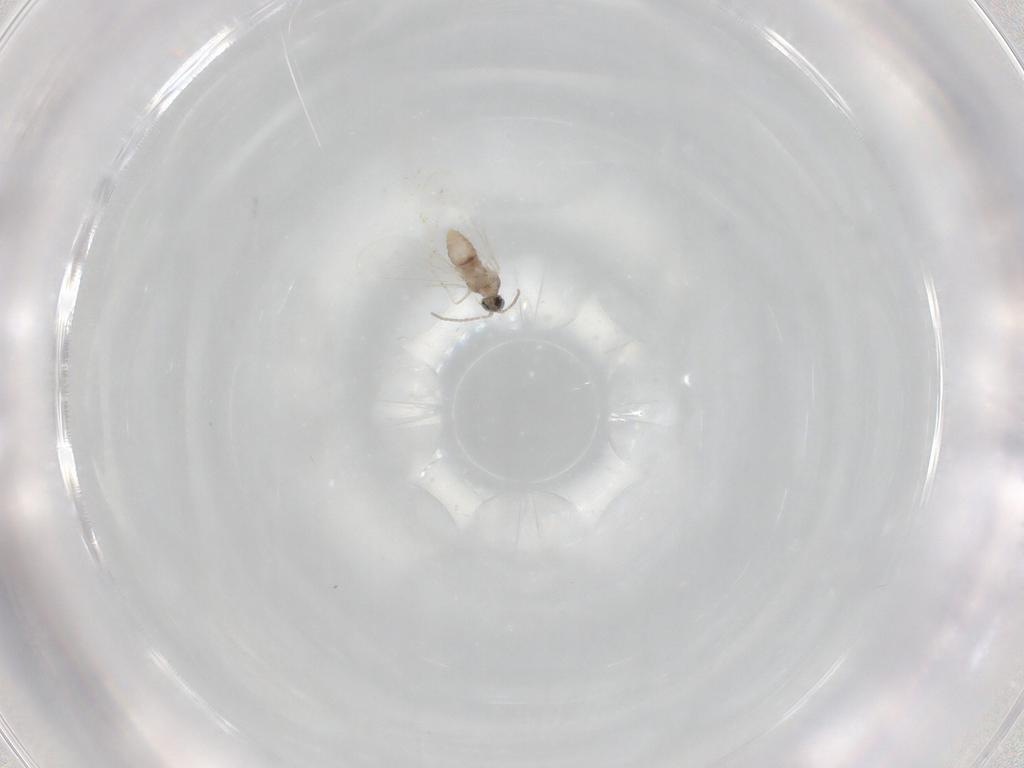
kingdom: Animalia
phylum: Arthropoda
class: Insecta
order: Diptera
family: Cecidomyiidae
